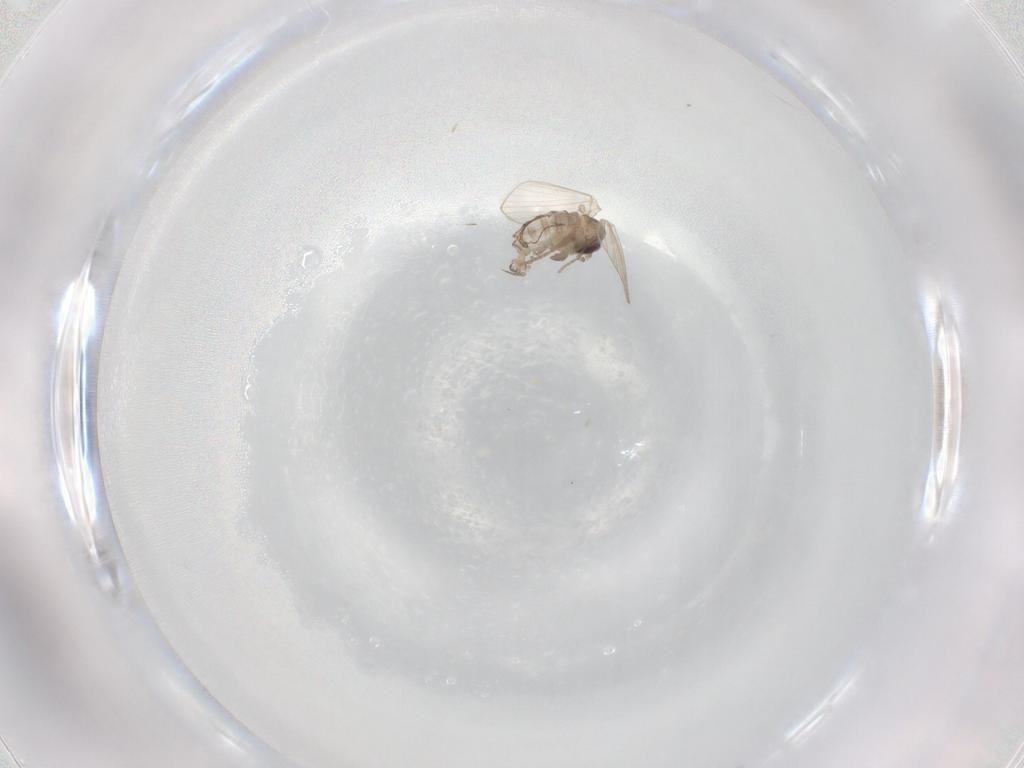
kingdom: Animalia
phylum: Arthropoda
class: Insecta
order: Diptera
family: Psychodidae
